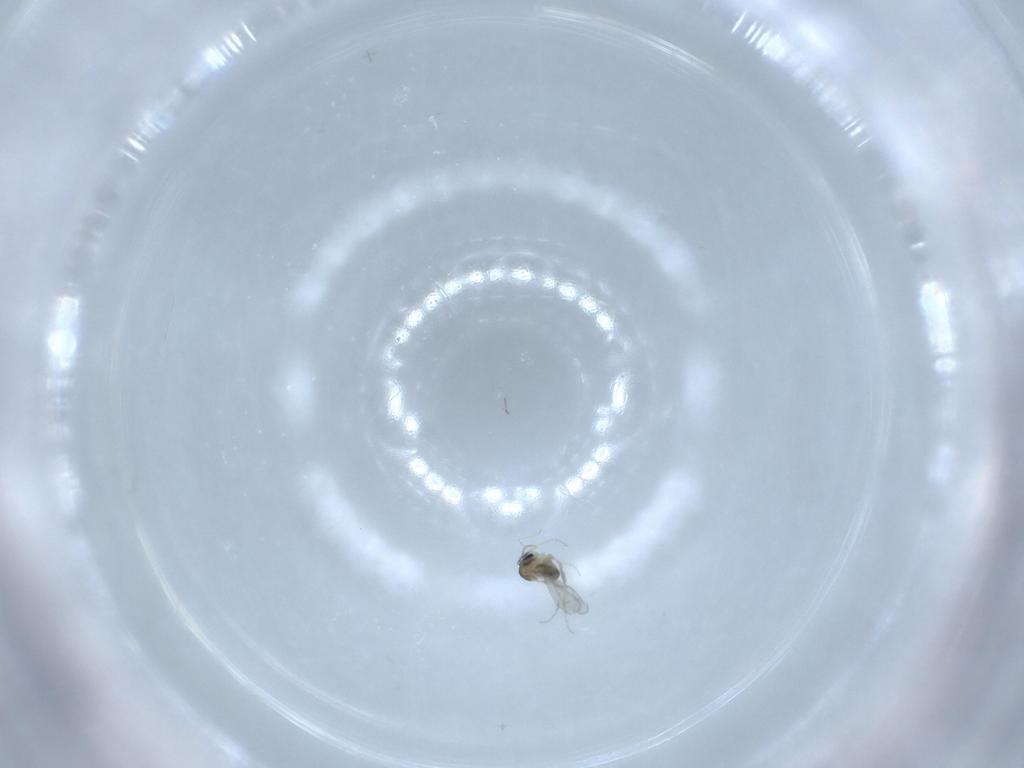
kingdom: Animalia
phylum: Arthropoda
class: Insecta
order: Diptera
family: Cecidomyiidae
